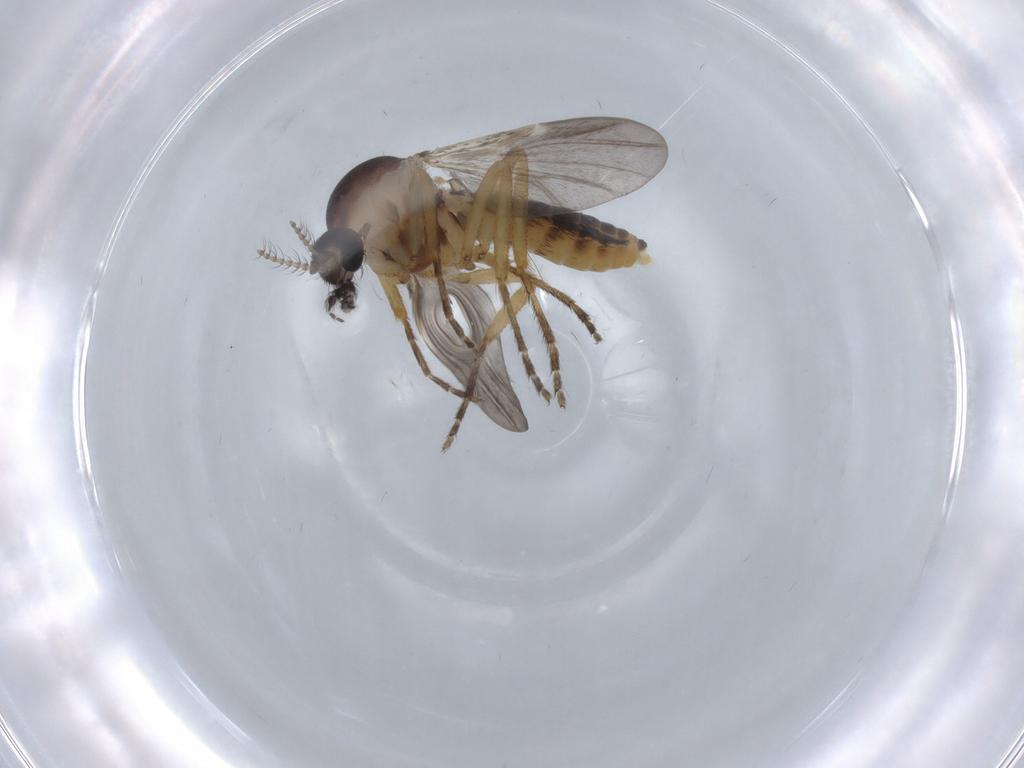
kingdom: Animalia
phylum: Arthropoda
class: Insecta
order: Diptera
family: Ceratopogonidae
